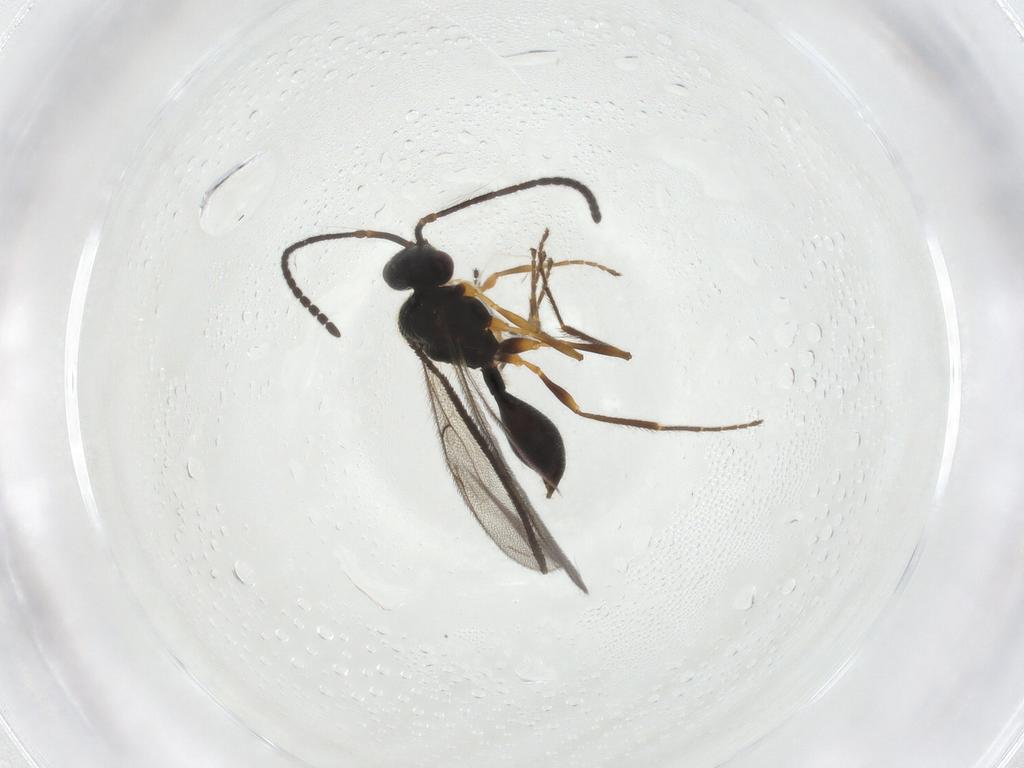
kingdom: Animalia
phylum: Arthropoda
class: Insecta
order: Hymenoptera
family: Diapriidae
